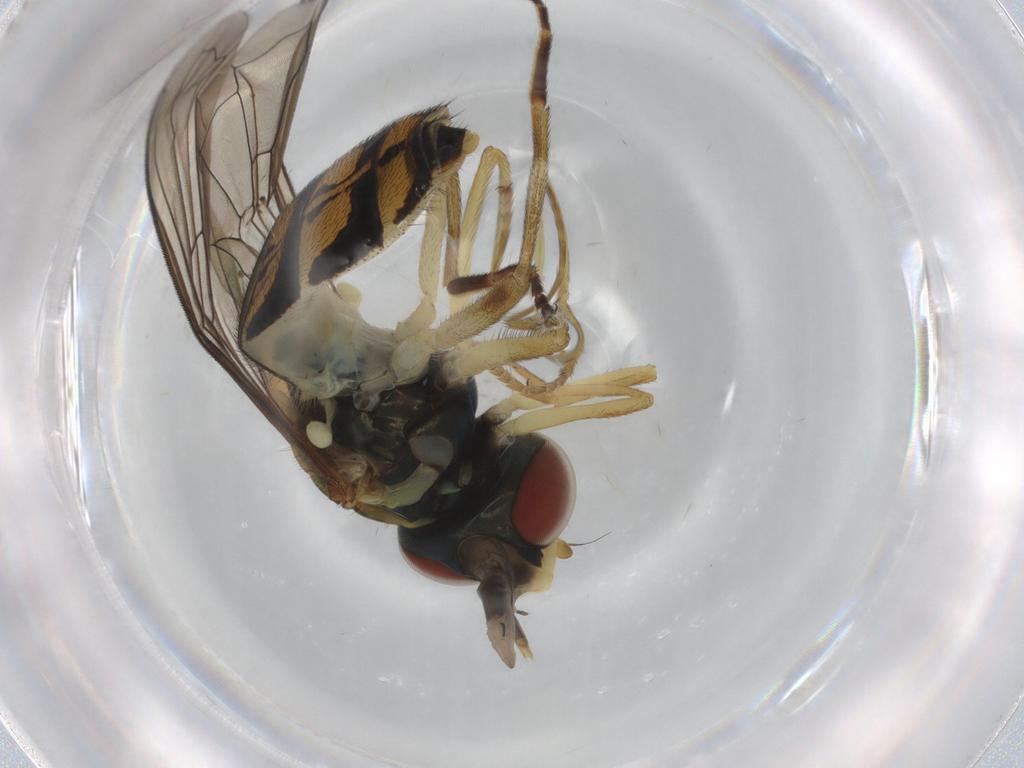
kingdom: Animalia
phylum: Arthropoda
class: Insecta
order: Diptera
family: Syrphidae
